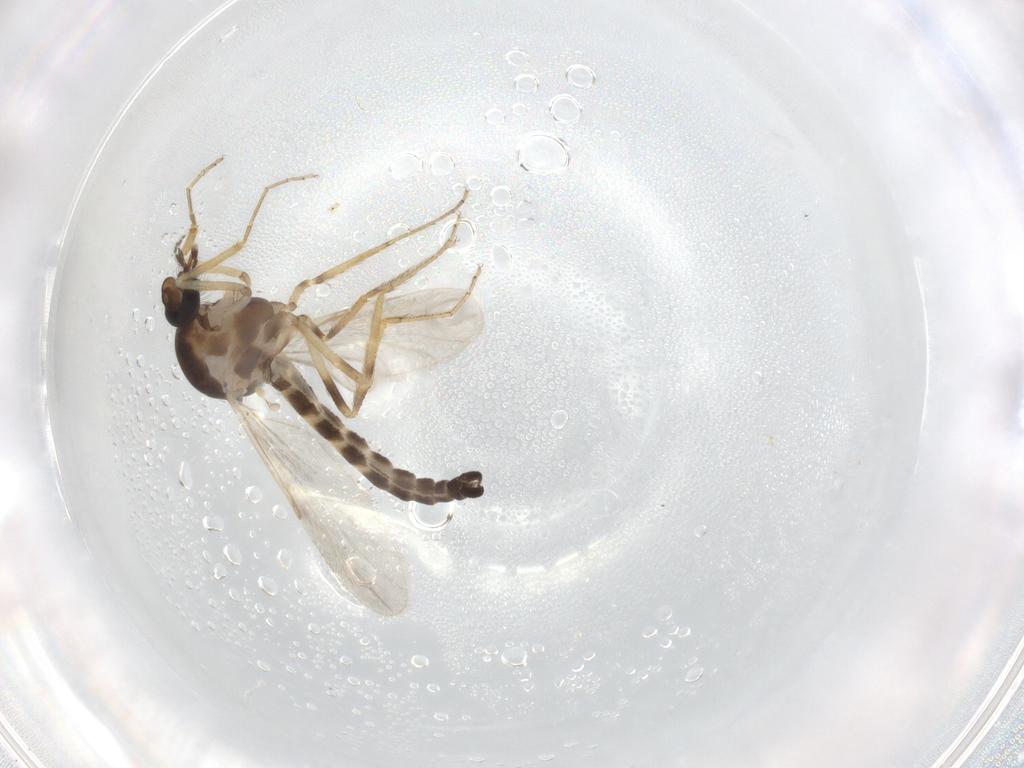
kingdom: Animalia
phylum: Arthropoda
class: Insecta
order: Diptera
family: Ceratopogonidae
